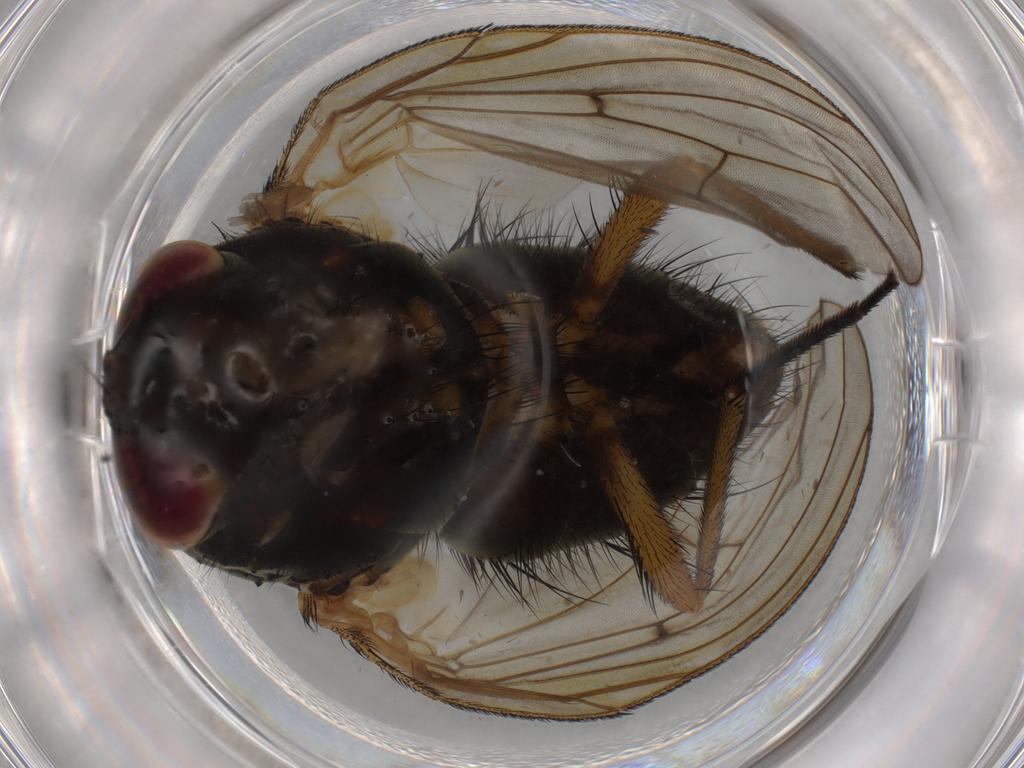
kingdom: Animalia
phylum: Arthropoda
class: Insecta
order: Diptera
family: Muscidae
